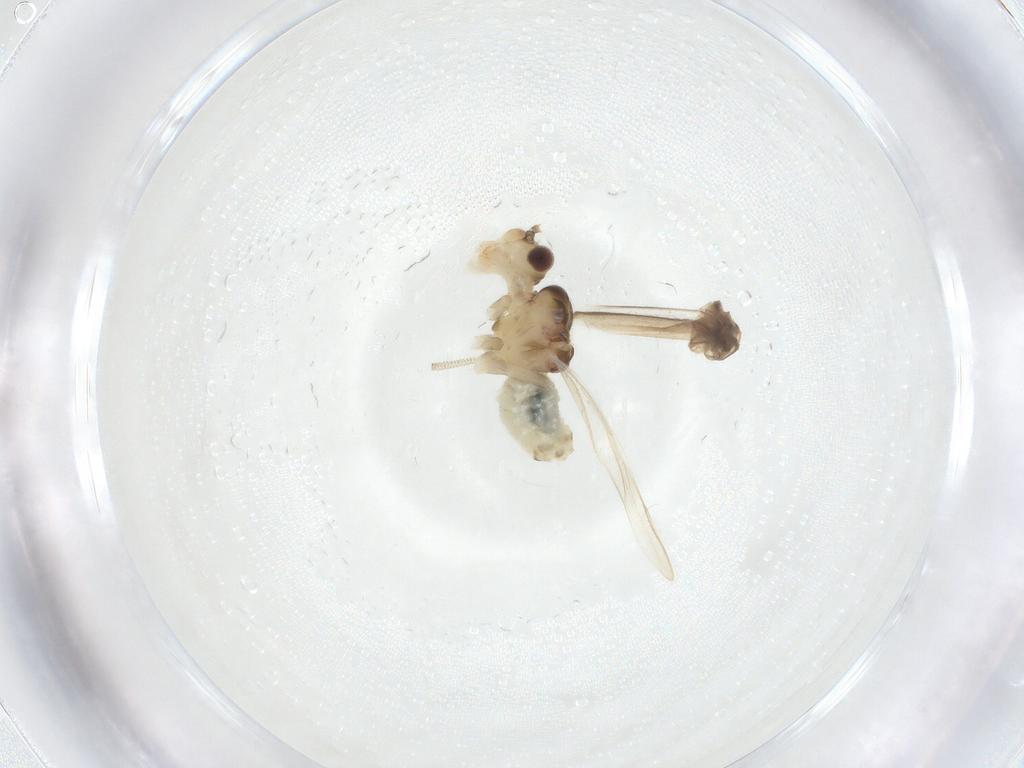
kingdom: Animalia
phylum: Arthropoda
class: Insecta
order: Psocodea
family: Caeciliusidae
